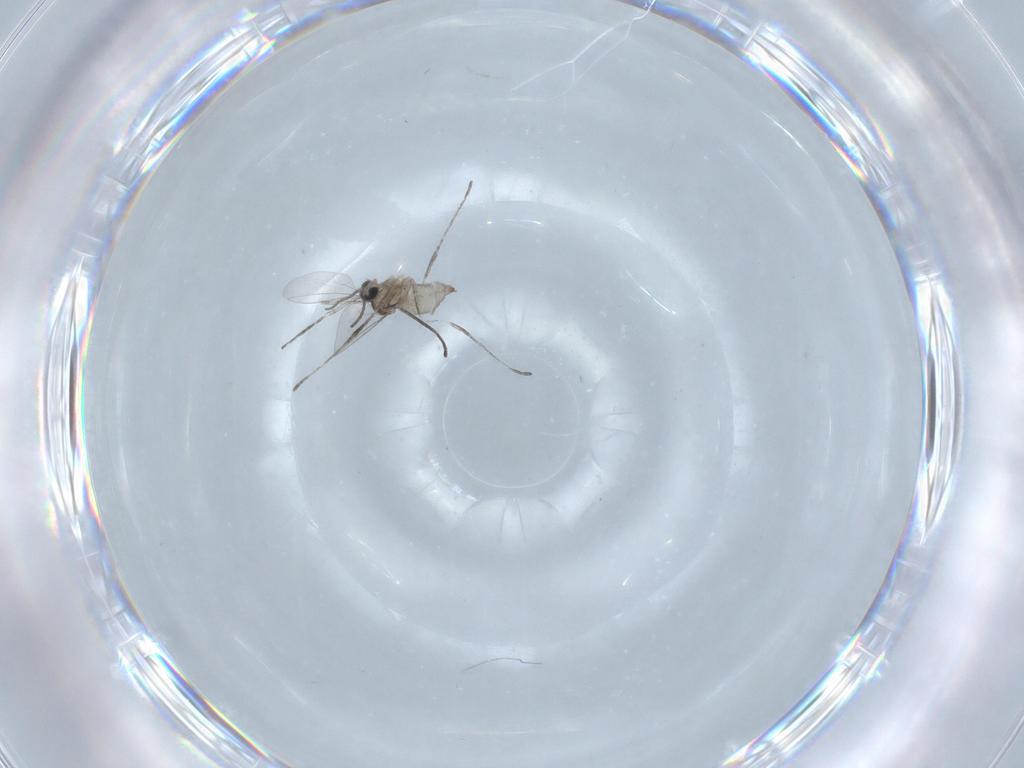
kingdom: Animalia
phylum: Arthropoda
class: Insecta
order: Diptera
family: Cecidomyiidae
